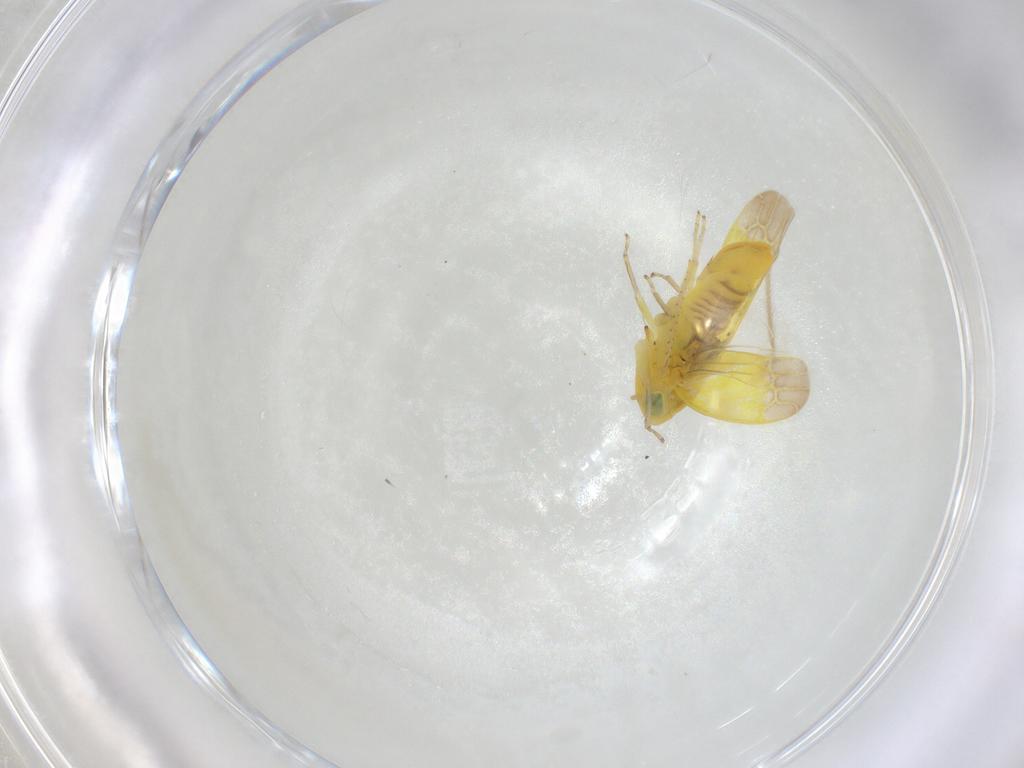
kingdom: Animalia
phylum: Arthropoda
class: Insecta
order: Hemiptera
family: Cicadellidae
